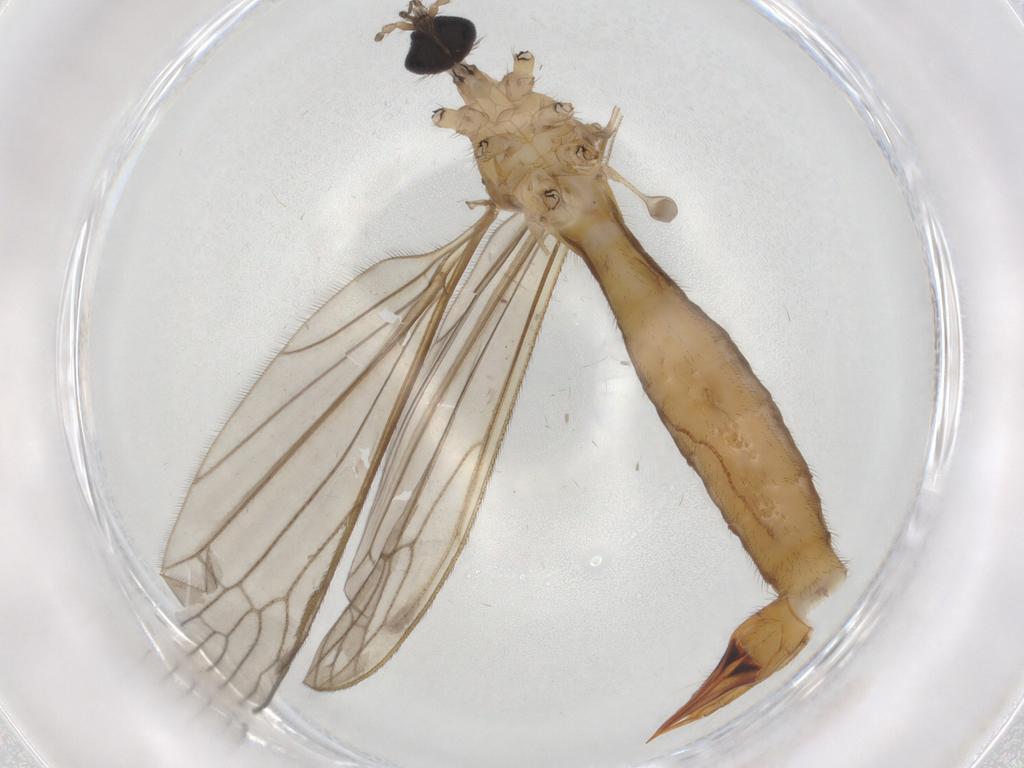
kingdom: Animalia
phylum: Arthropoda
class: Insecta
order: Diptera
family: Limoniidae
